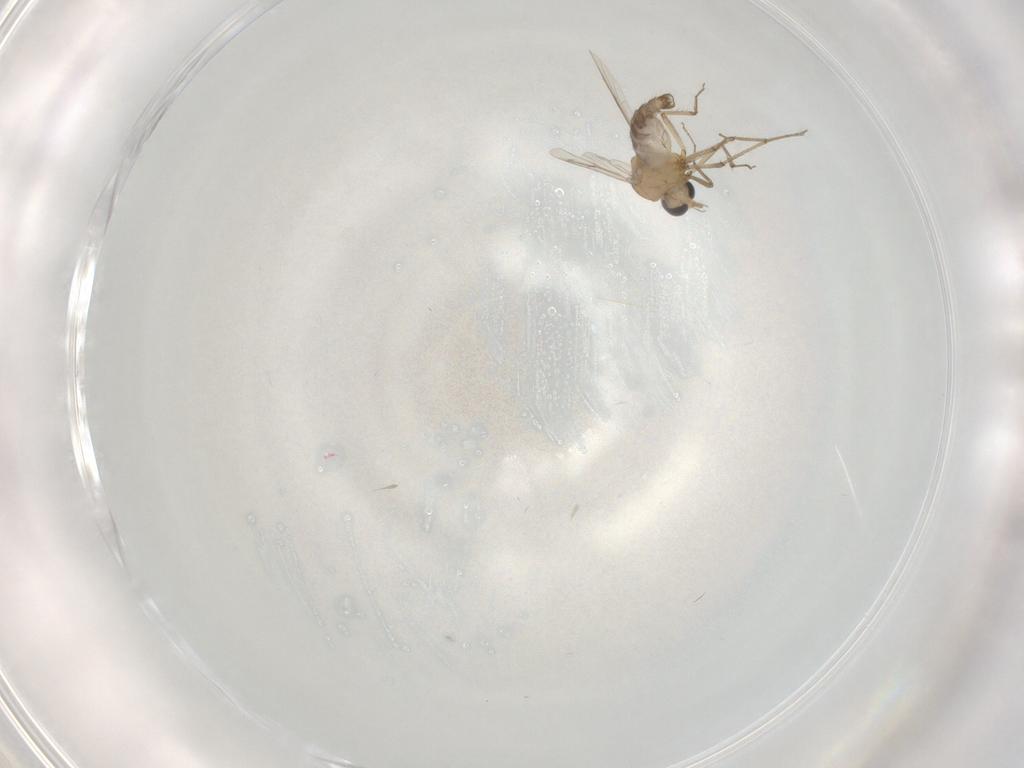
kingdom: Animalia
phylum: Arthropoda
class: Insecta
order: Diptera
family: Ceratopogonidae
